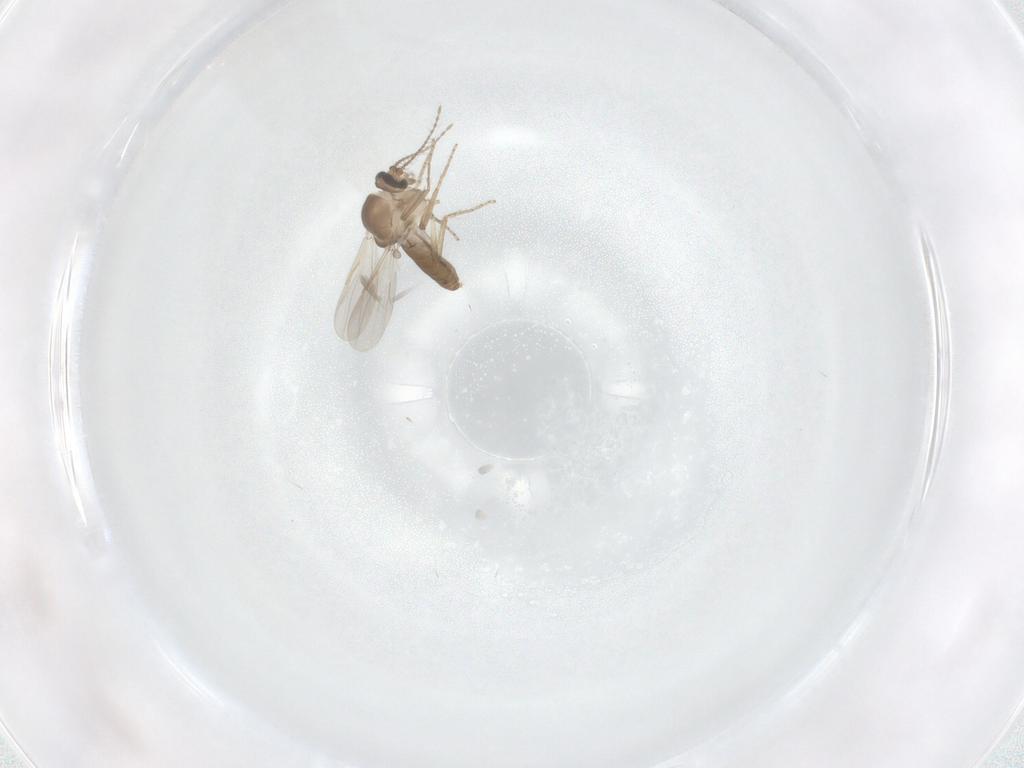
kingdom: Animalia
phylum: Arthropoda
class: Insecta
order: Diptera
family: Ceratopogonidae
